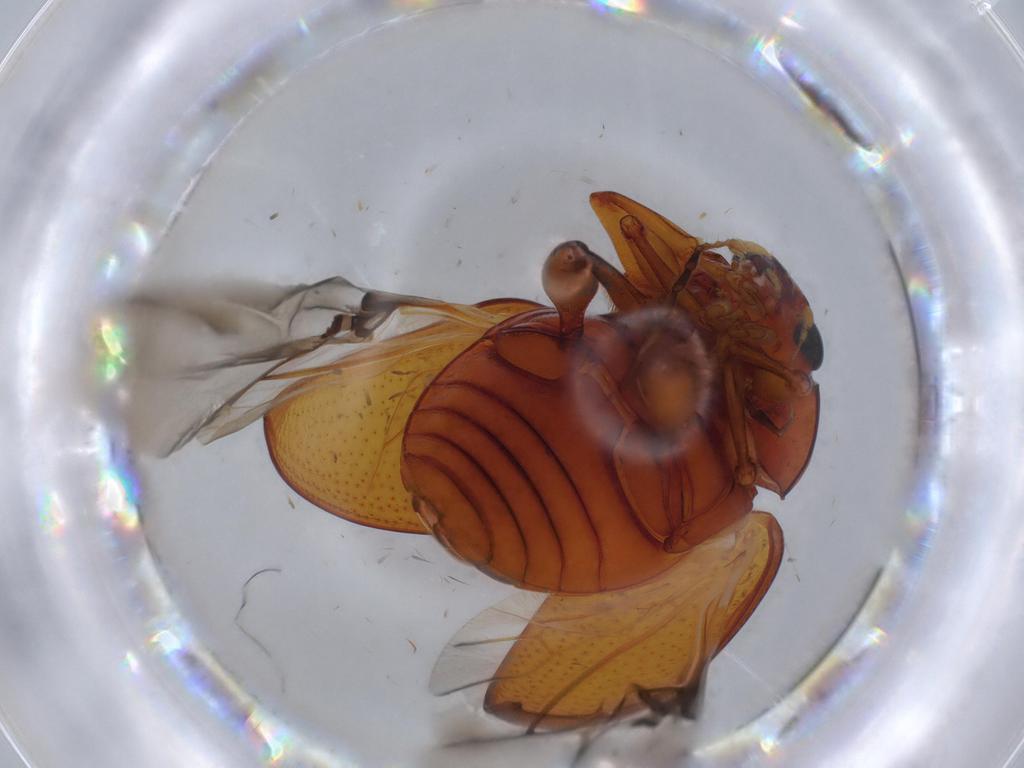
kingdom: Animalia
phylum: Arthropoda
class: Insecta
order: Coleoptera
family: Chrysomelidae
